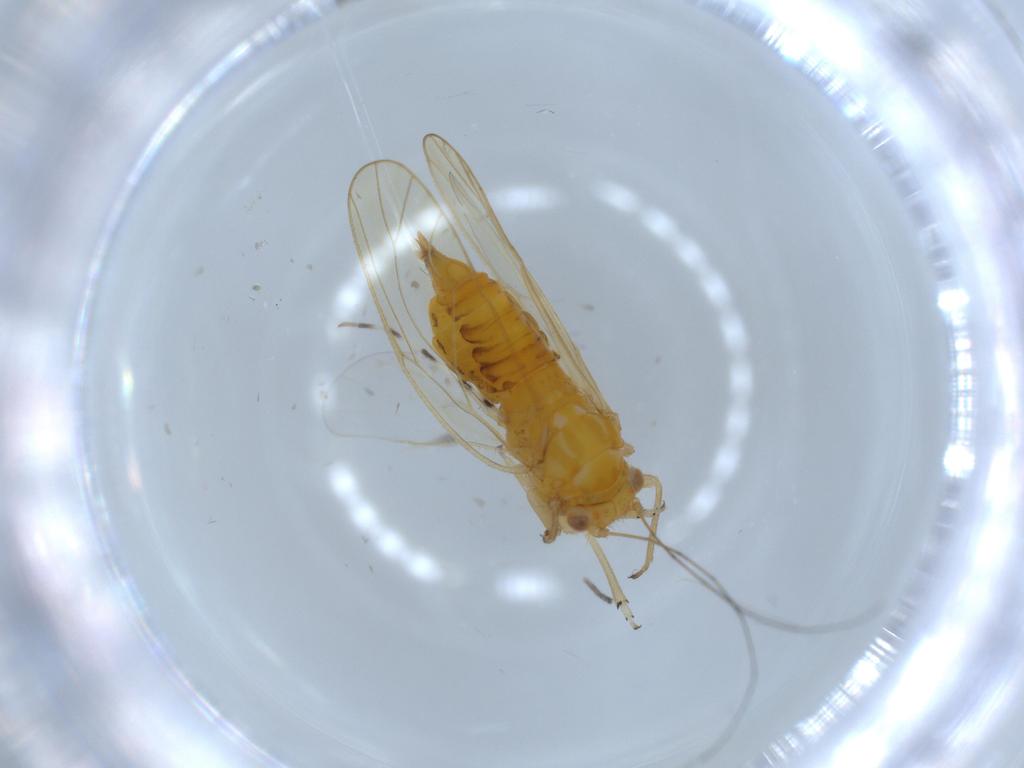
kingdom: Animalia
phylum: Arthropoda
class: Insecta
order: Hemiptera
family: Psyllidae
